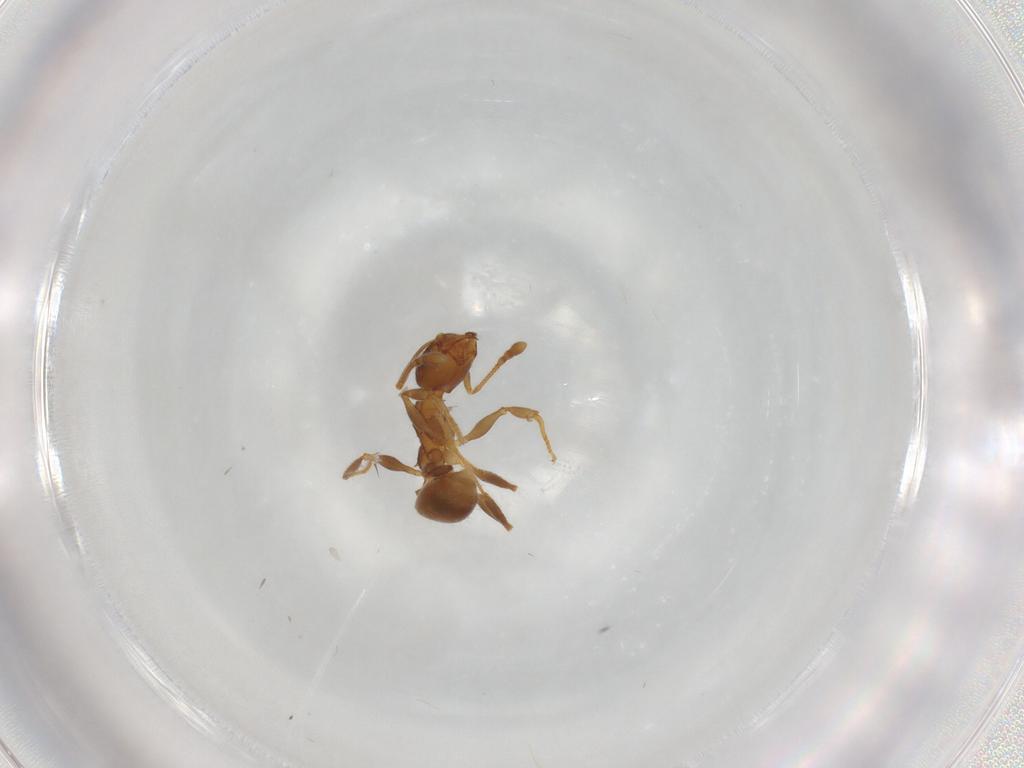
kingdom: Animalia
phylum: Arthropoda
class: Insecta
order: Hymenoptera
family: Formicidae
